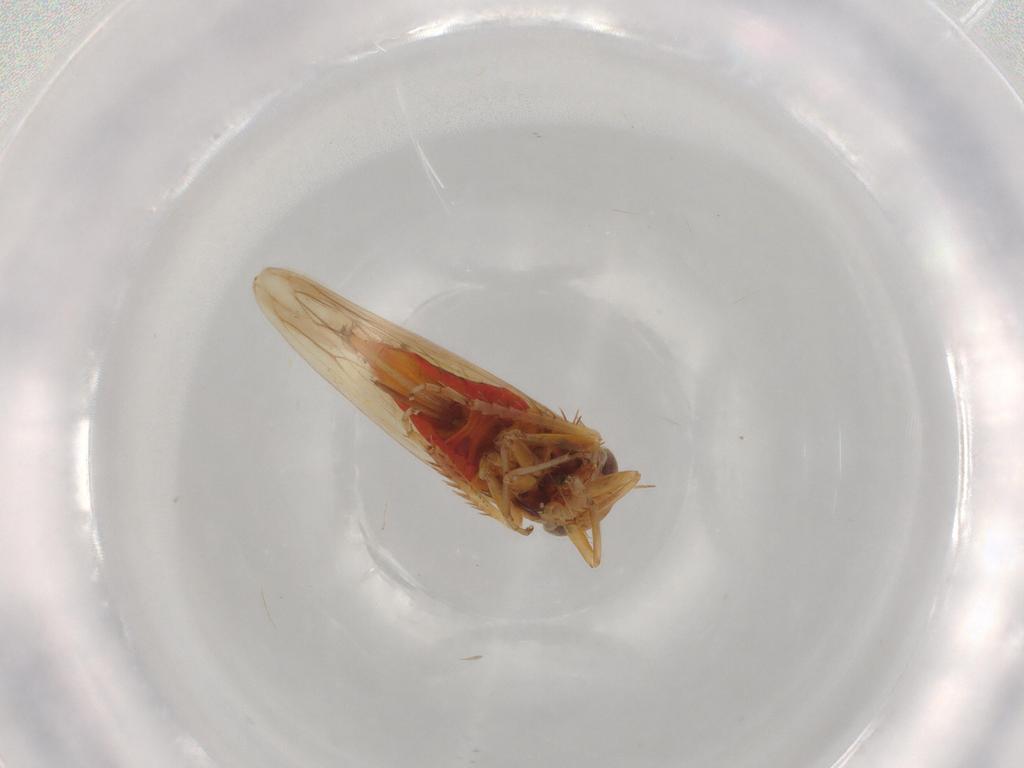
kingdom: Animalia
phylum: Arthropoda
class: Insecta
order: Hemiptera
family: Cicadellidae
